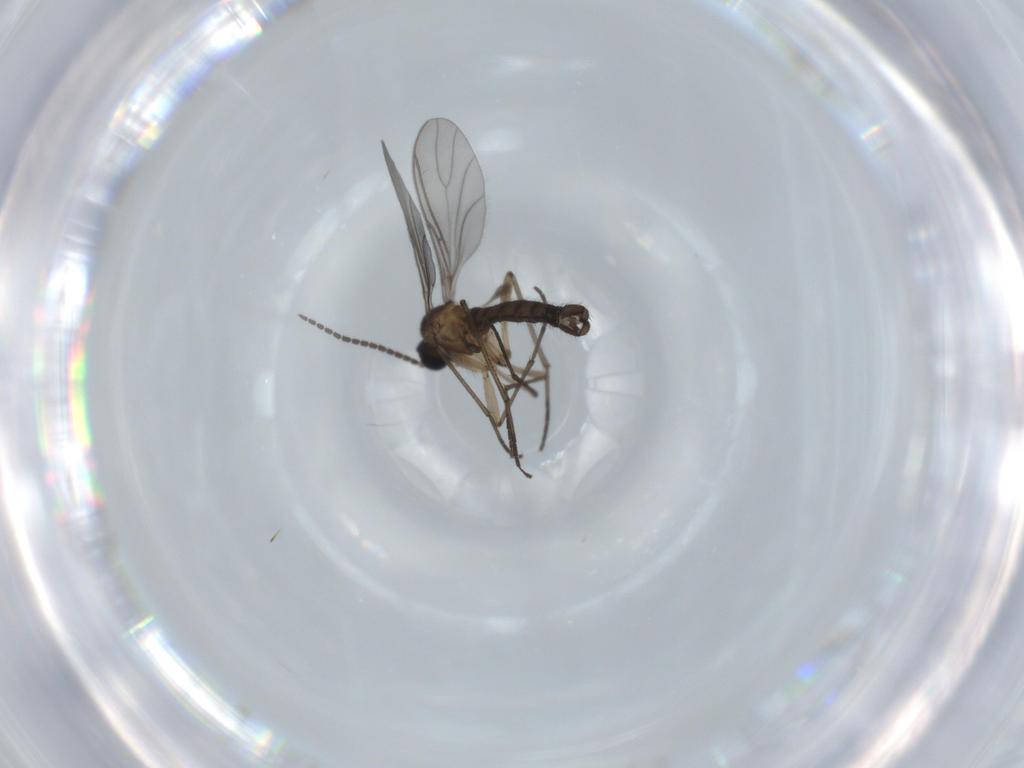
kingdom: Animalia
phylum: Arthropoda
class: Insecta
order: Diptera
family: Sciaridae
